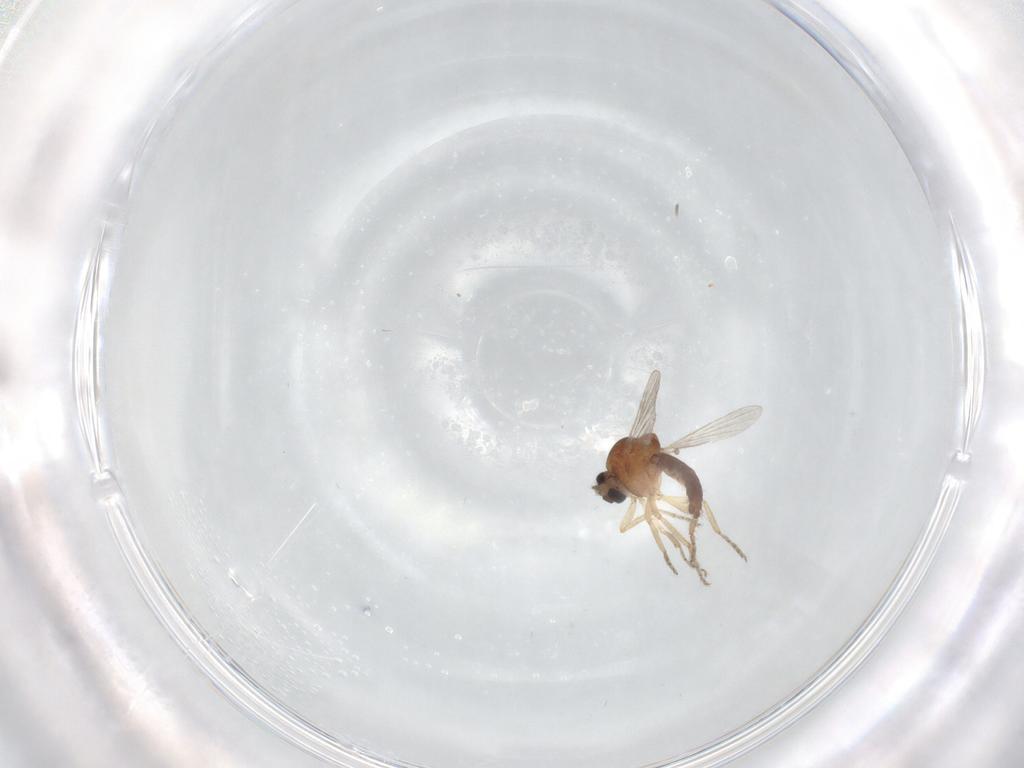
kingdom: Animalia
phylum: Arthropoda
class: Insecta
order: Diptera
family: Ceratopogonidae
